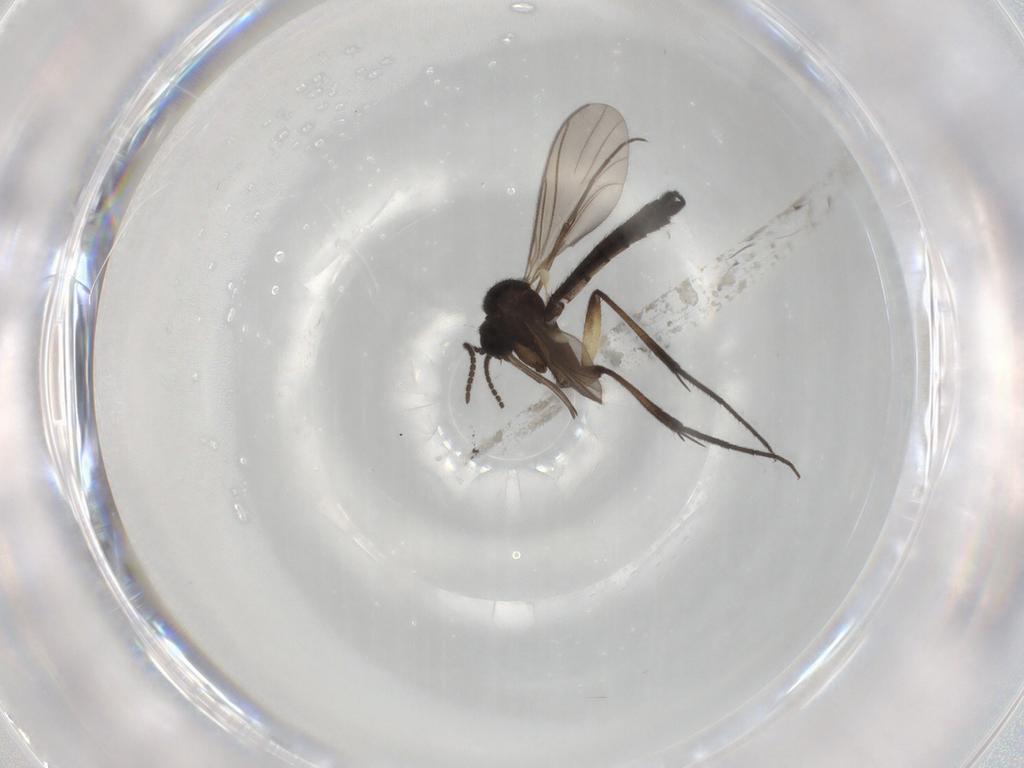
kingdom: Animalia
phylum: Arthropoda
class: Insecta
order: Diptera
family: Keroplatidae
